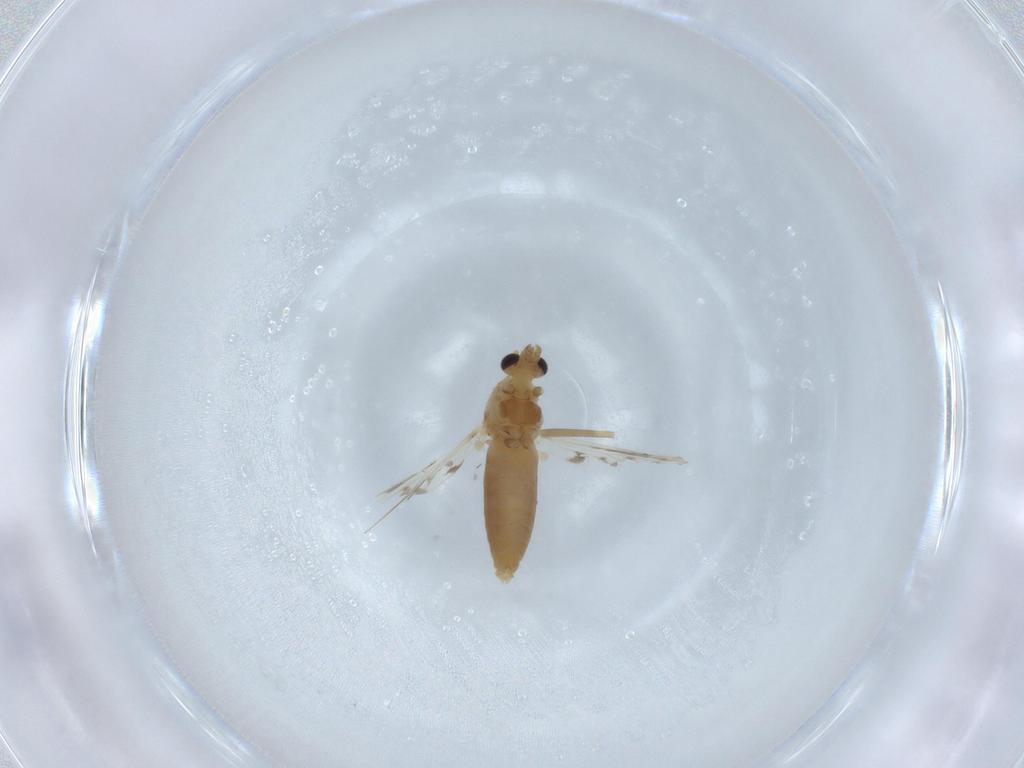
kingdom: Animalia
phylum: Arthropoda
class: Insecta
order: Diptera
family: Chironomidae
